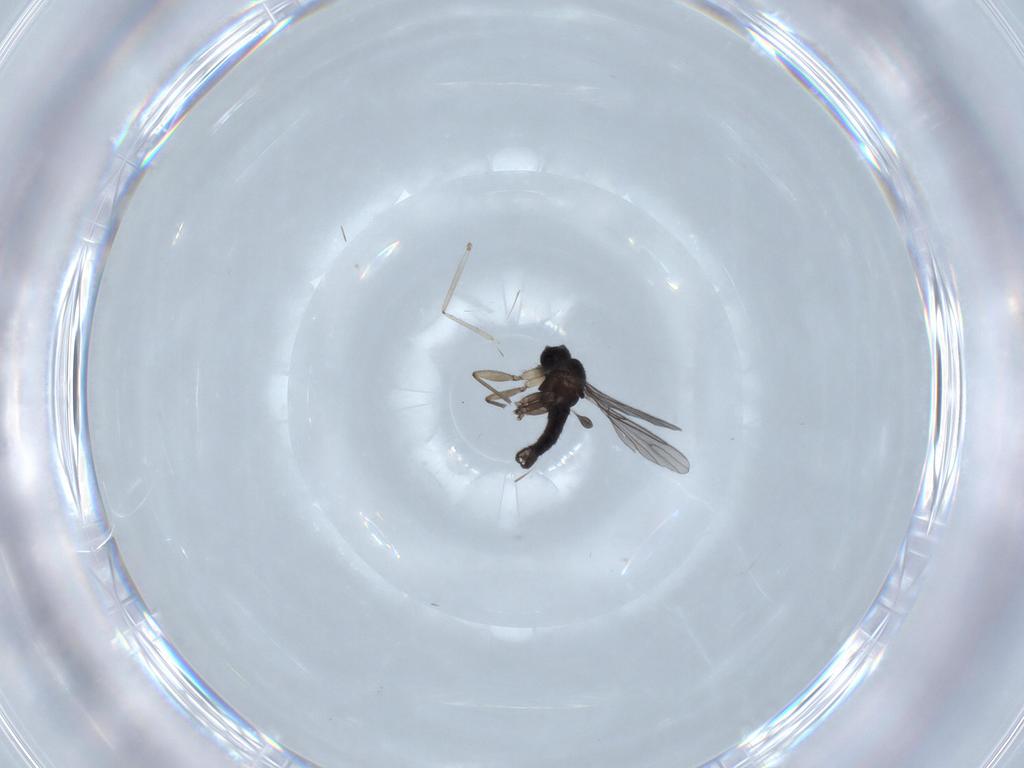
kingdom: Animalia
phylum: Arthropoda
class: Insecta
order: Diptera
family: Sciaridae
